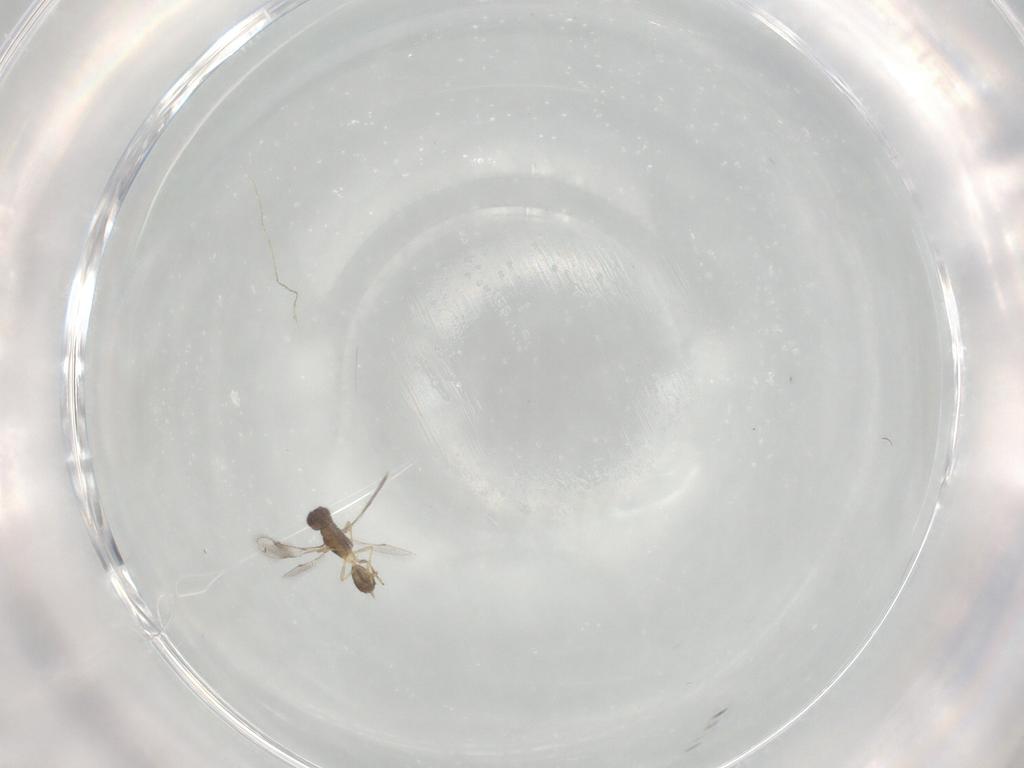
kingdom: Animalia
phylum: Arthropoda
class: Insecta
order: Hymenoptera
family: Pteromalidae
